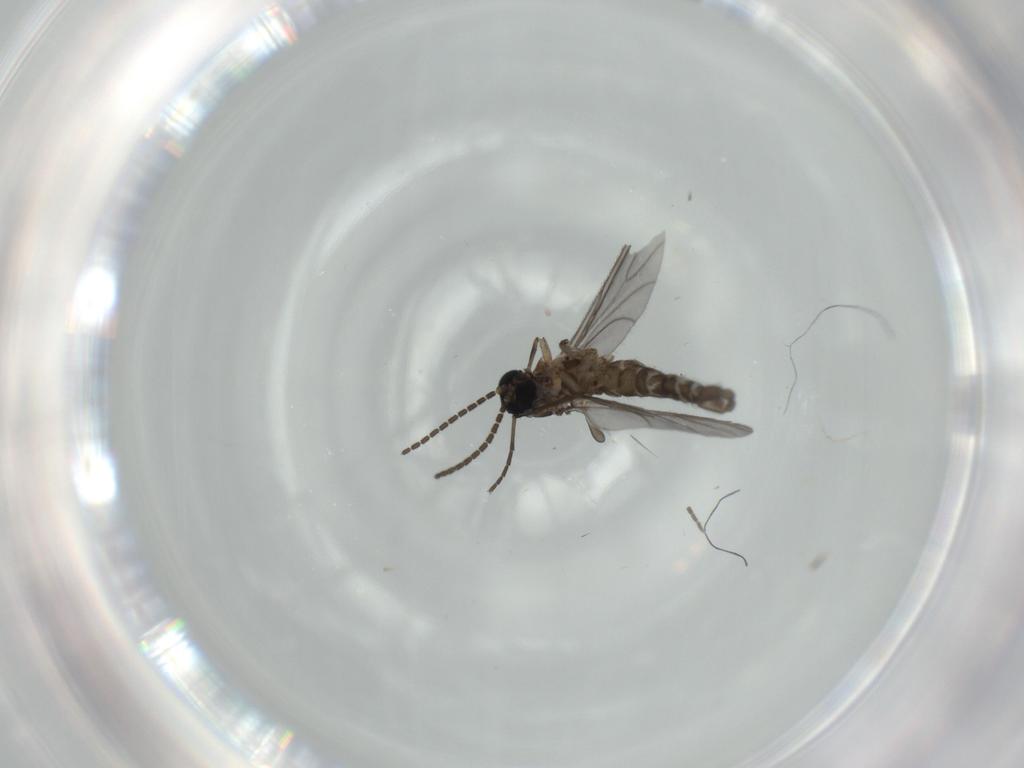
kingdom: Animalia
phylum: Arthropoda
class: Insecta
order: Diptera
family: Sciaridae
